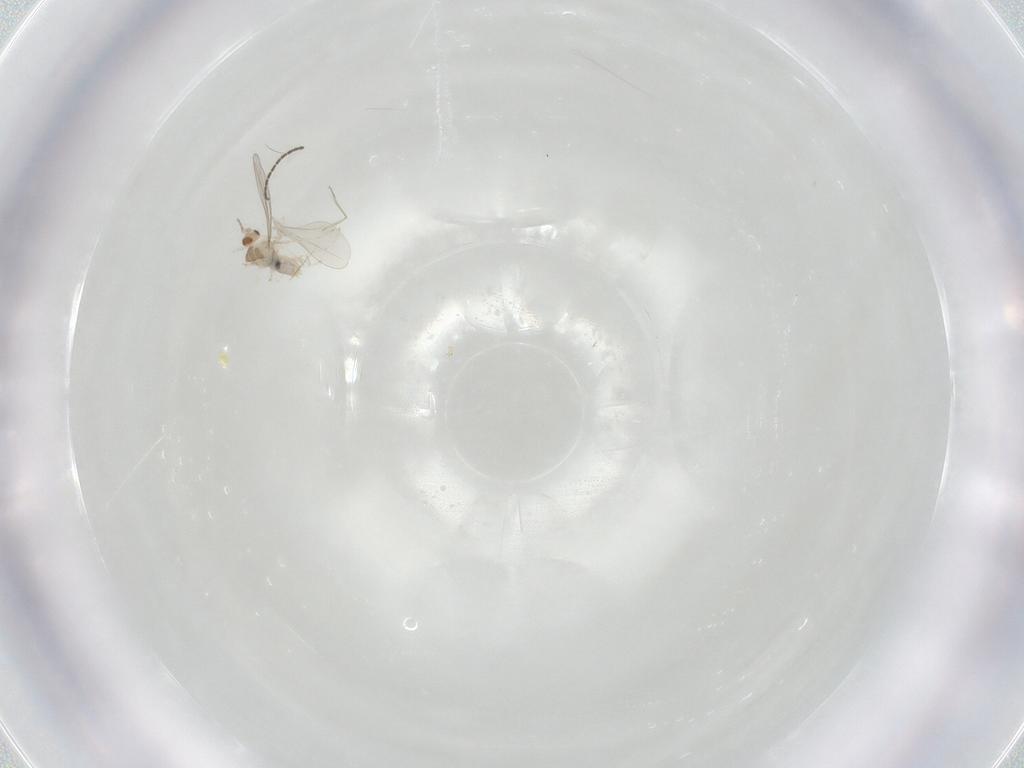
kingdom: Animalia
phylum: Arthropoda
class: Insecta
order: Diptera
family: Cecidomyiidae
